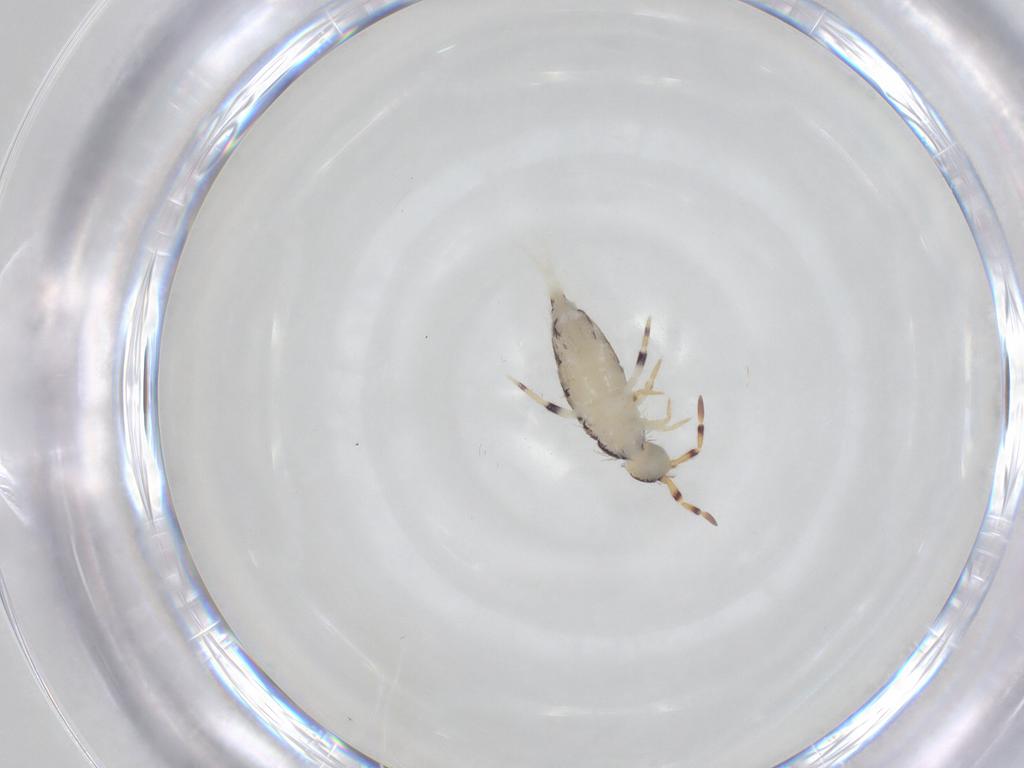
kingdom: Animalia
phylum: Arthropoda
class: Collembola
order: Entomobryomorpha
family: Isotomidae
